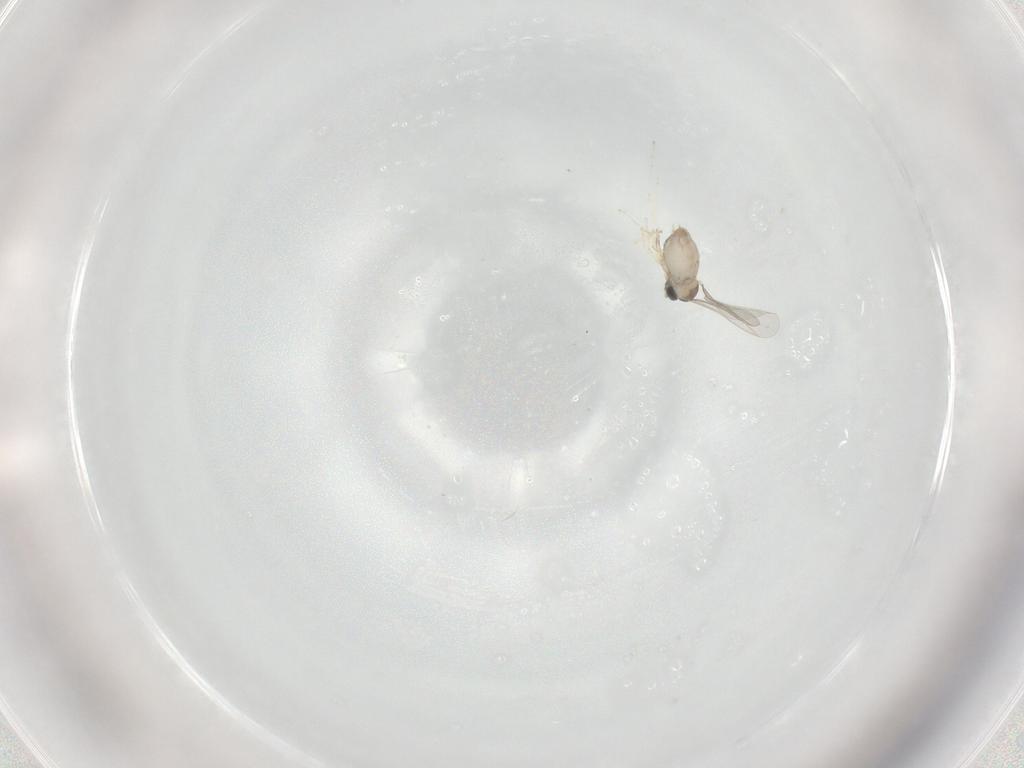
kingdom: Animalia
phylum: Arthropoda
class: Insecta
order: Diptera
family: Cecidomyiidae
